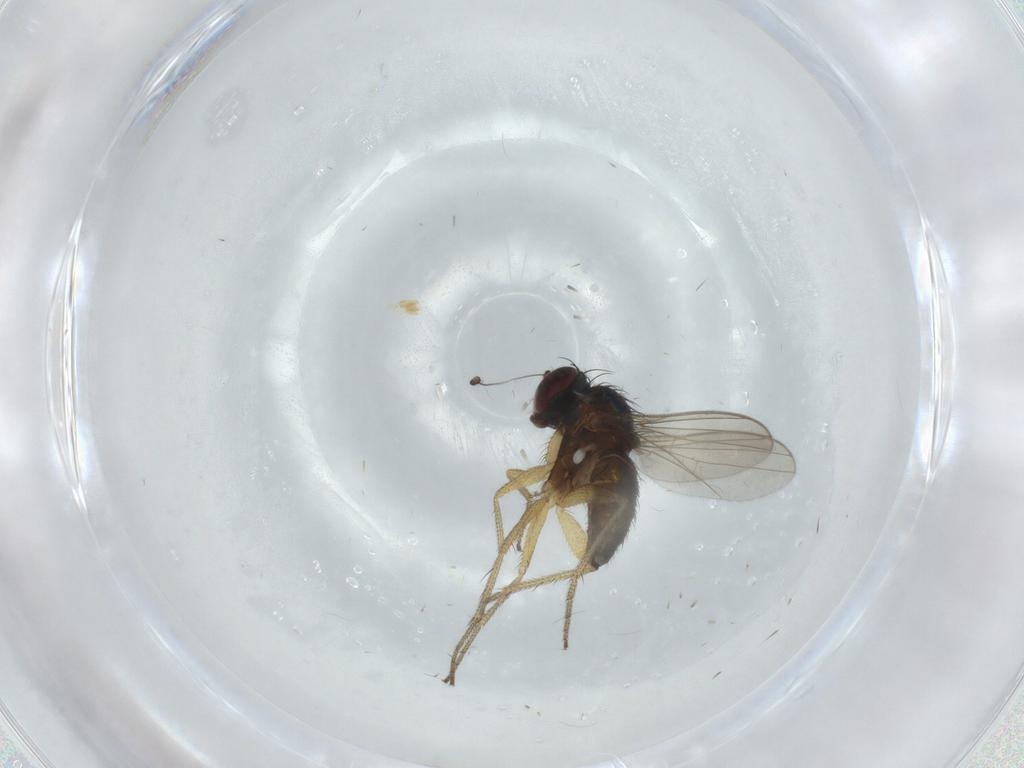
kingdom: Animalia
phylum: Arthropoda
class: Insecta
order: Diptera
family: Dolichopodidae
